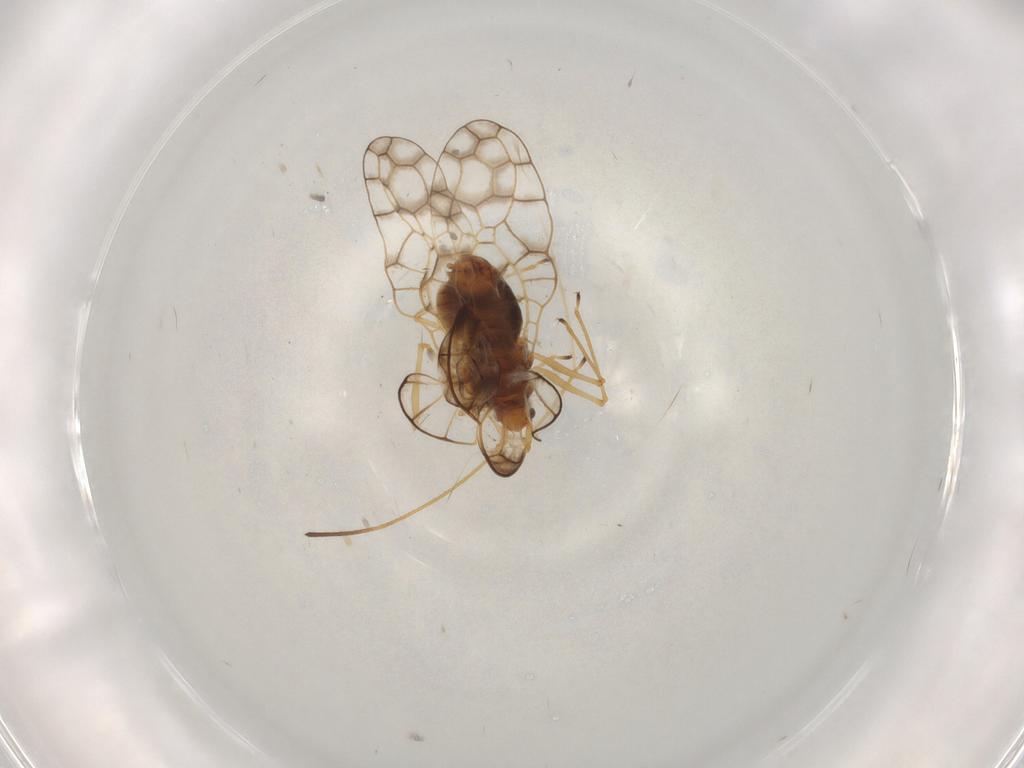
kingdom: Animalia
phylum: Arthropoda
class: Insecta
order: Hemiptera
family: Tingidae
